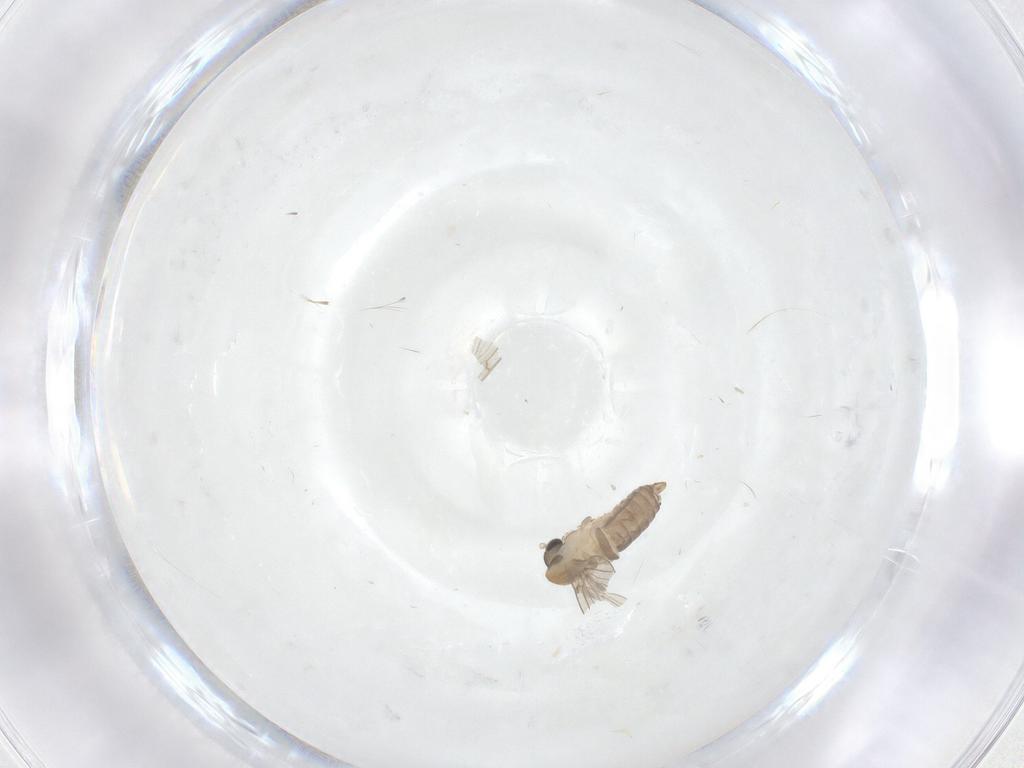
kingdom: Animalia
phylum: Arthropoda
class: Insecta
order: Diptera
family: Psychodidae
